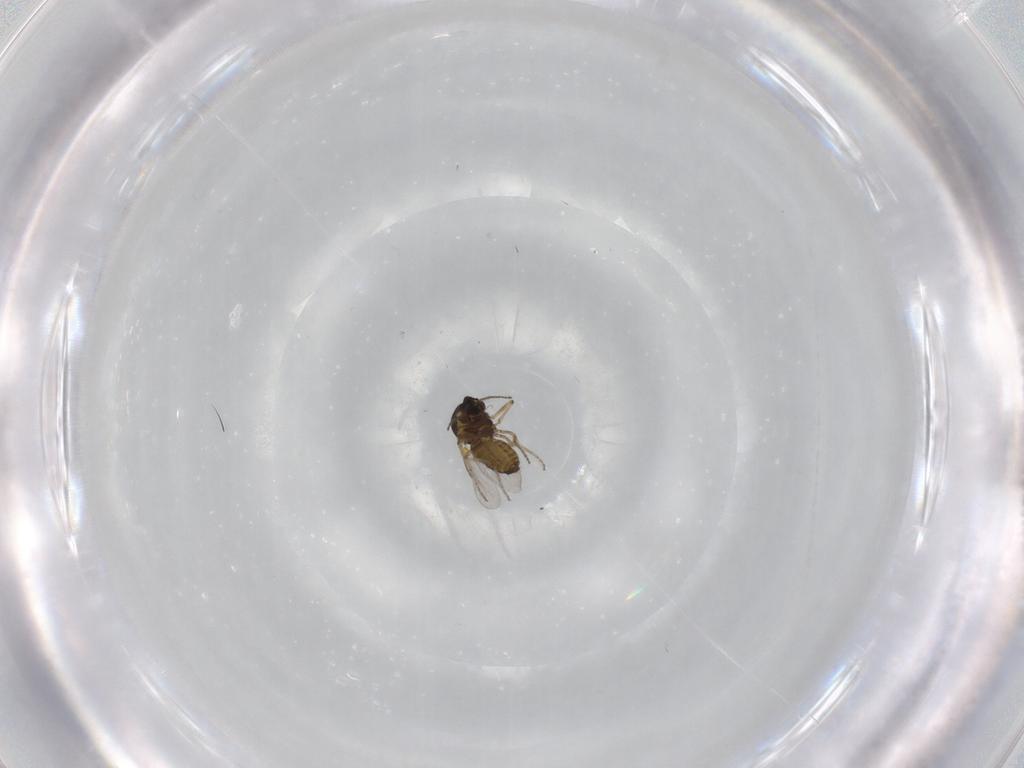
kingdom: Animalia
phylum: Arthropoda
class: Insecta
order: Diptera
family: Ceratopogonidae
